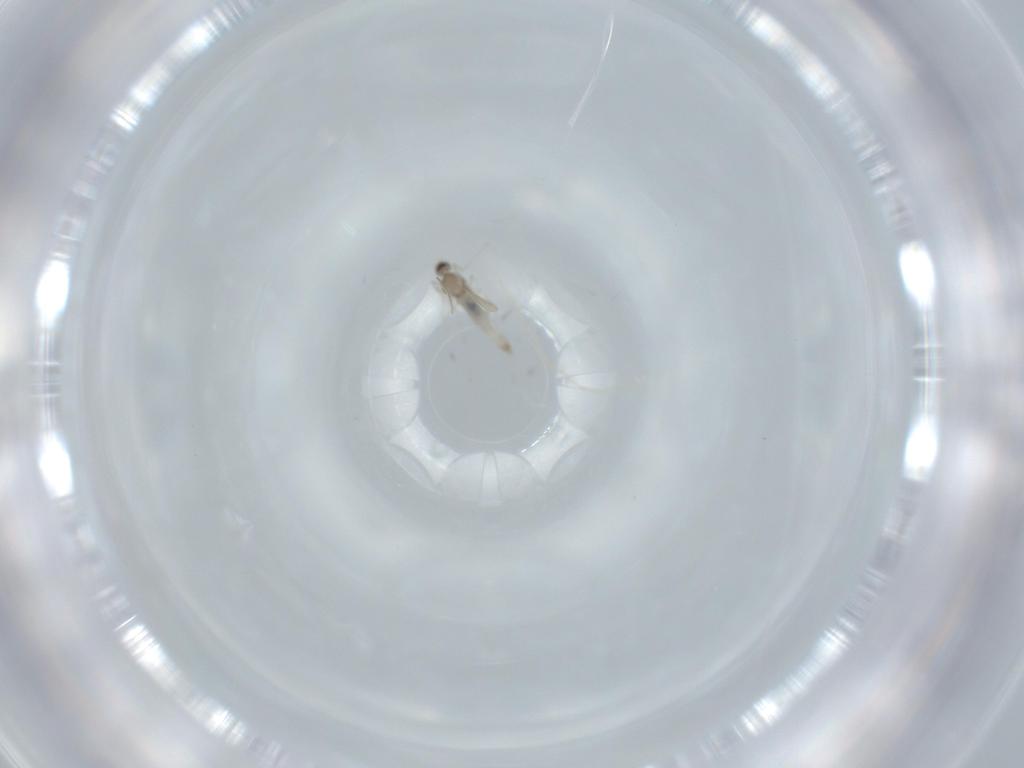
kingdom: Animalia
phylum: Arthropoda
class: Insecta
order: Diptera
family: Cecidomyiidae
